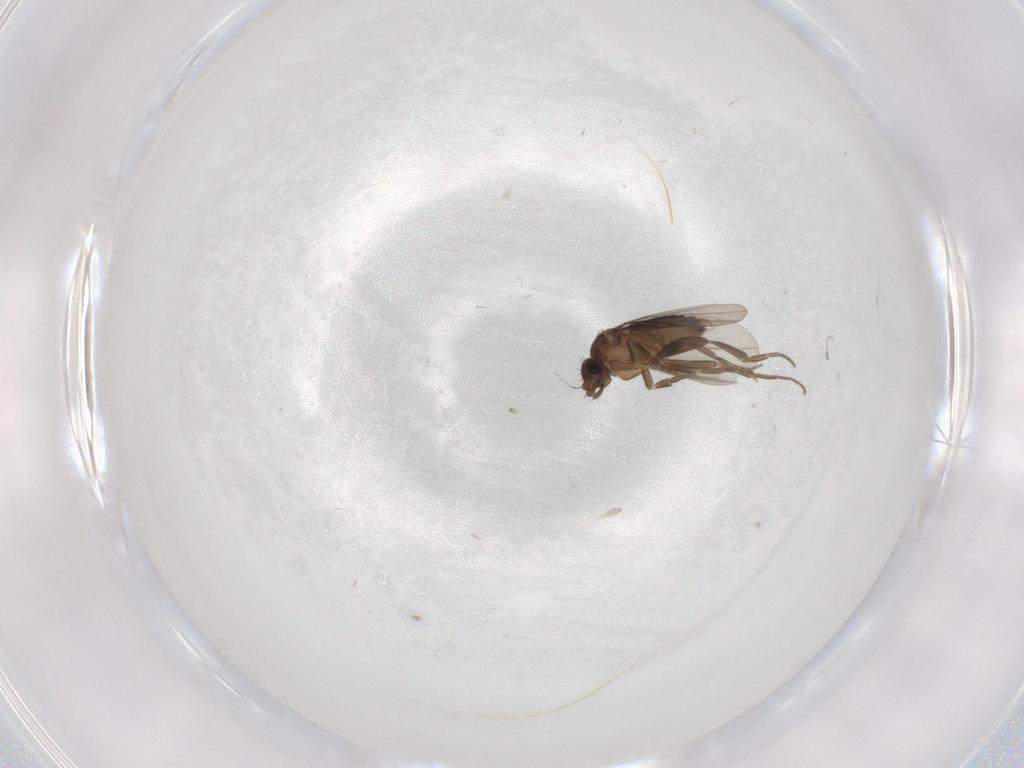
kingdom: Animalia
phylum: Arthropoda
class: Insecta
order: Diptera
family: Phoridae
